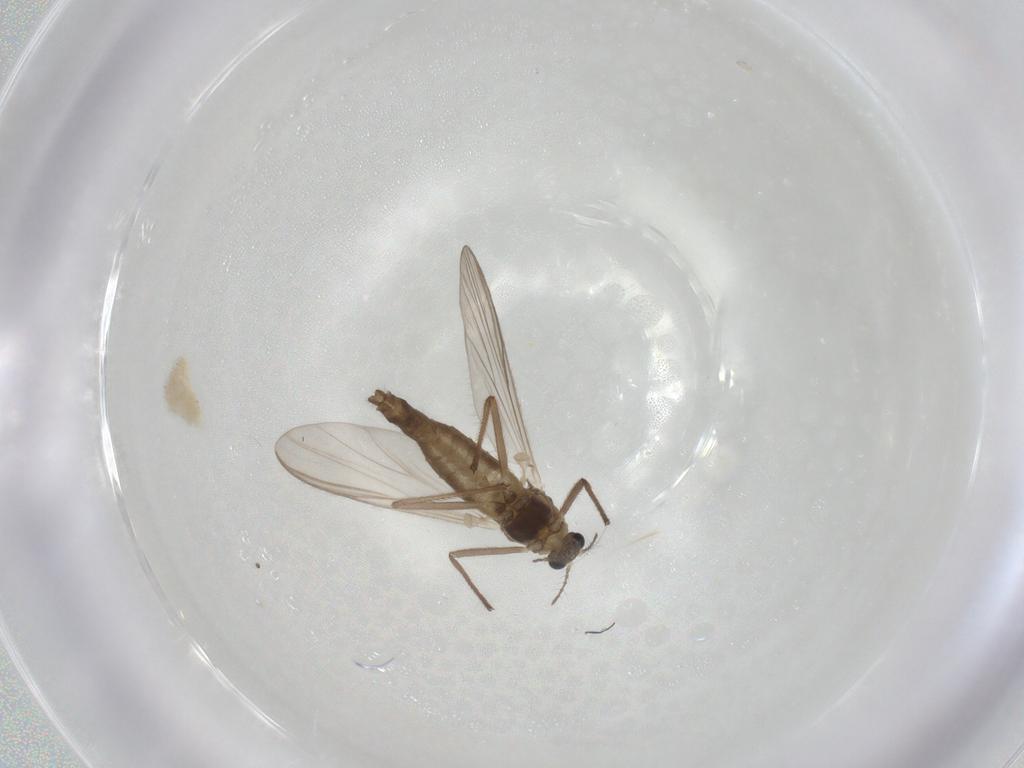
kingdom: Animalia
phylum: Arthropoda
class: Insecta
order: Diptera
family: Chironomidae
